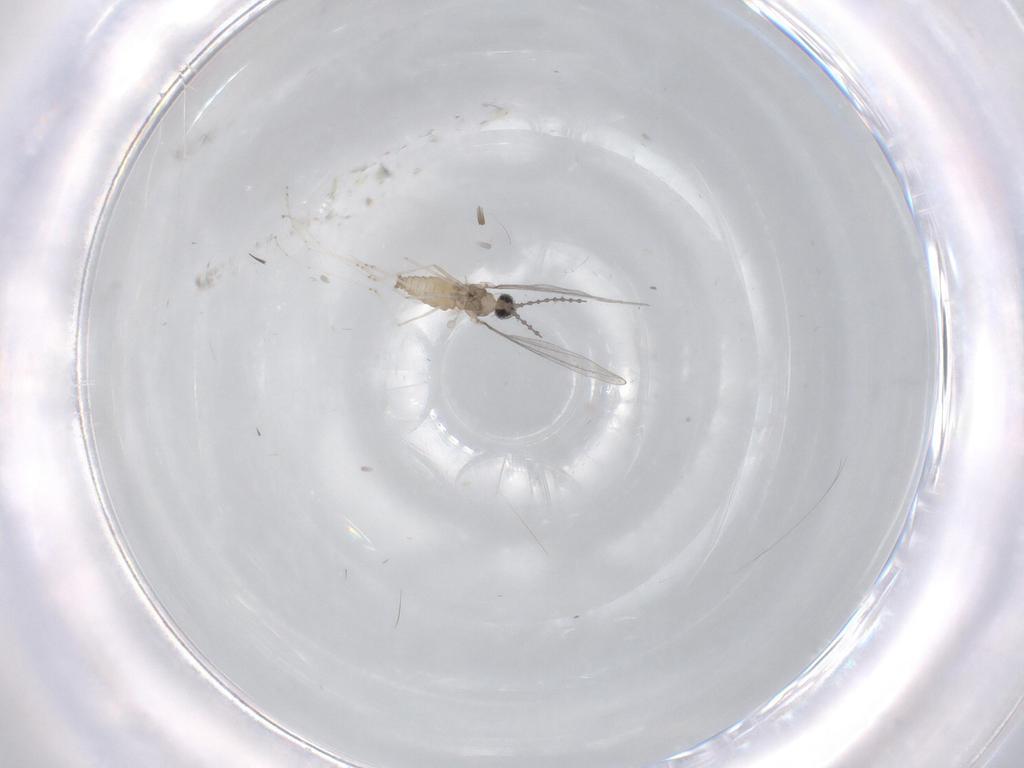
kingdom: Animalia
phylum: Arthropoda
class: Insecta
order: Diptera
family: Cecidomyiidae
